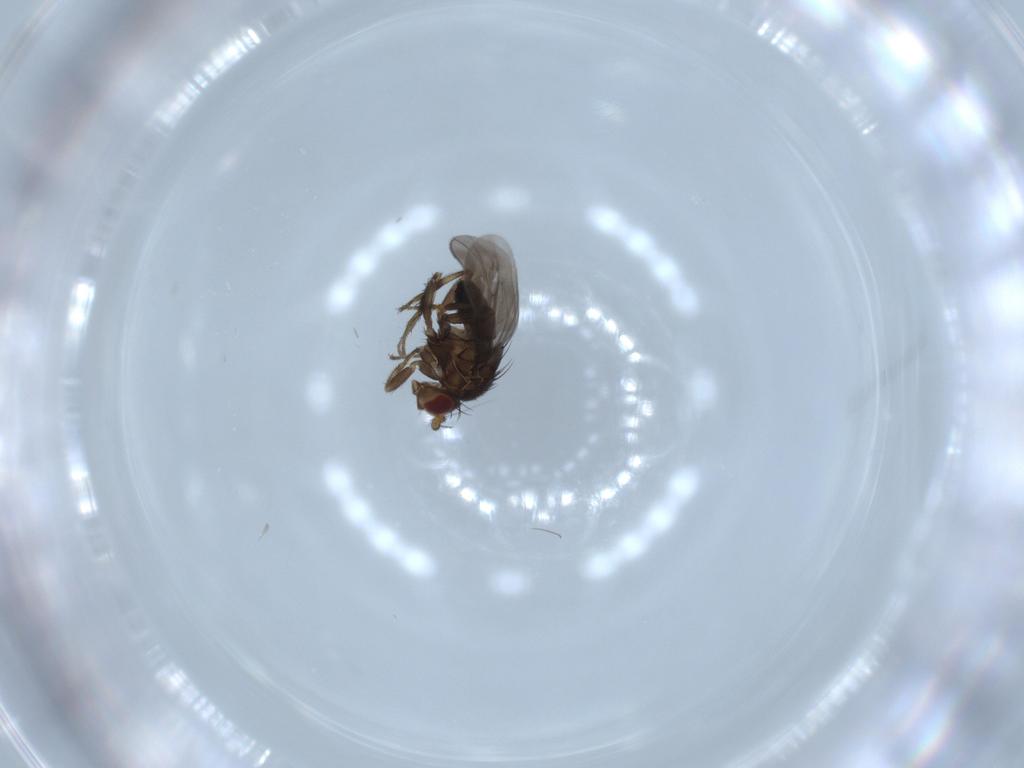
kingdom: Animalia
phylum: Arthropoda
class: Insecta
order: Diptera
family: Sphaeroceridae
